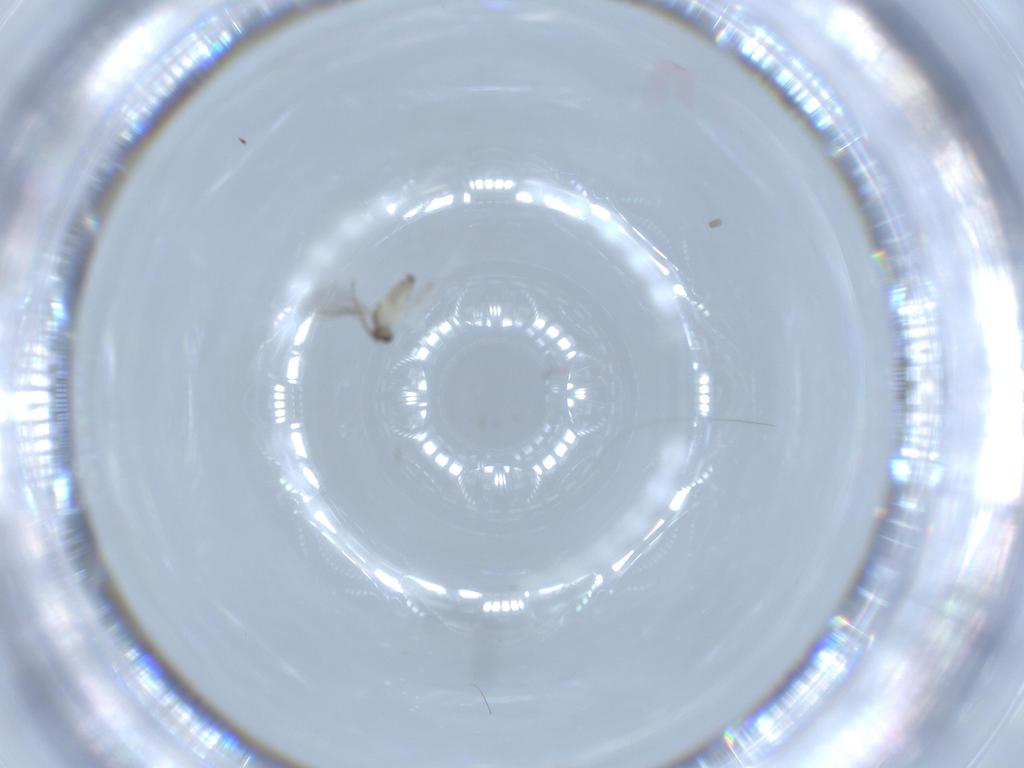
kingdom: Animalia
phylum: Arthropoda
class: Insecta
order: Diptera
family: Cecidomyiidae
